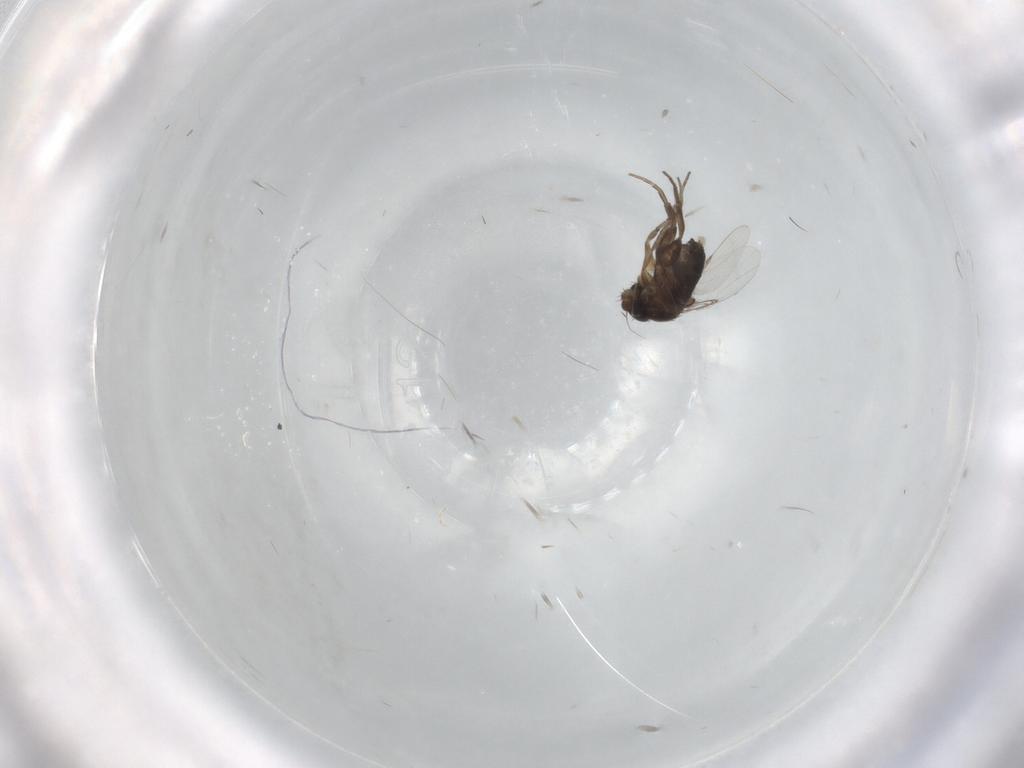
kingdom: Animalia
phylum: Arthropoda
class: Insecta
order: Diptera
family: Phoridae
